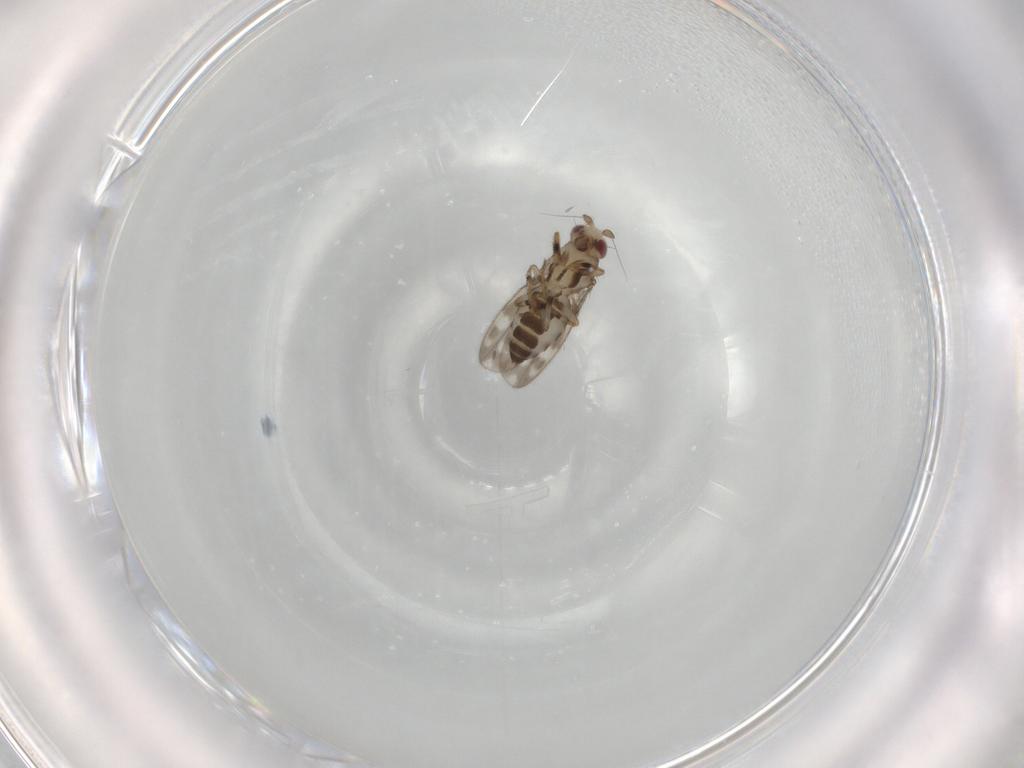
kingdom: Animalia
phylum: Arthropoda
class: Insecta
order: Diptera
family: Sphaeroceridae
